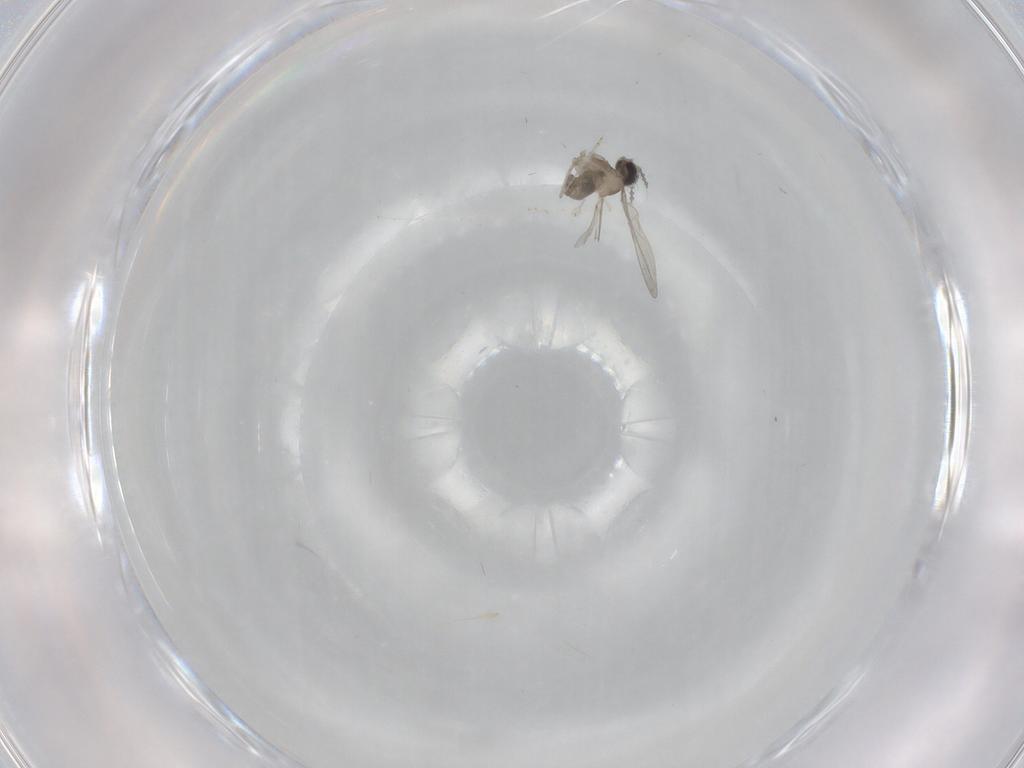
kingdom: Animalia
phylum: Arthropoda
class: Insecta
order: Diptera
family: Cecidomyiidae
